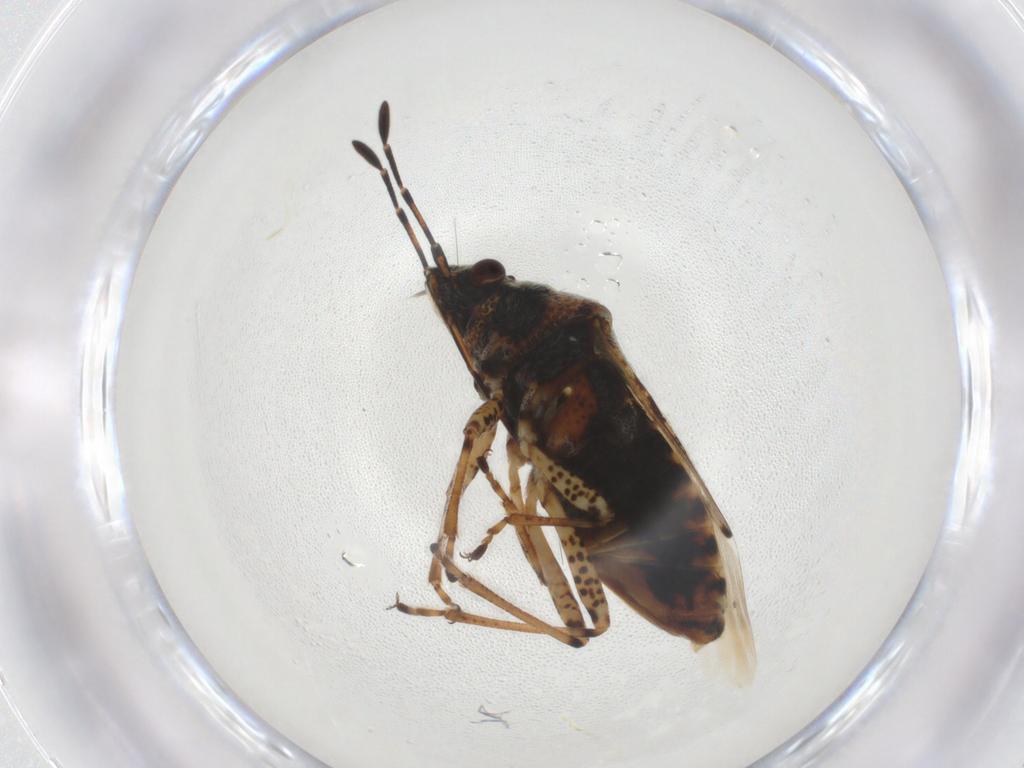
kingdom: Animalia
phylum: Arthropoda
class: Insecta
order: Hemiptera
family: Lygaeidae
